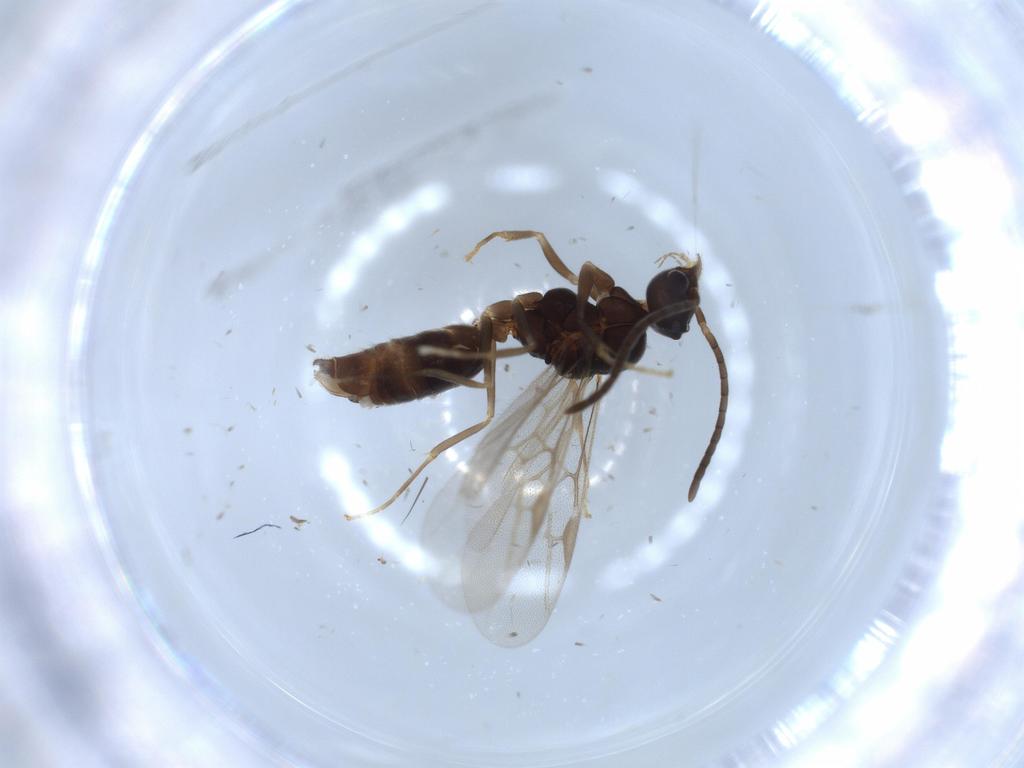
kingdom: Animalia
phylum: Arthropoda
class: Insecta
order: Hymenoptera
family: Formicidae
